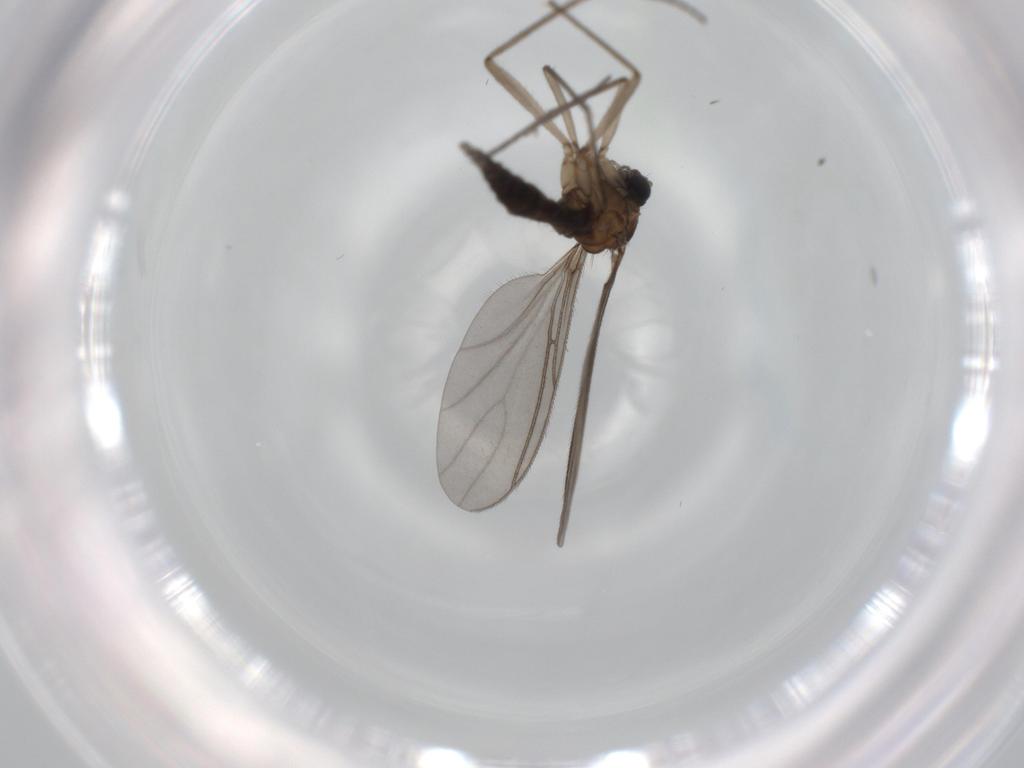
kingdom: Animalia
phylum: Arthropoda
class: Insecta
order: Diptera
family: Sciaridae
